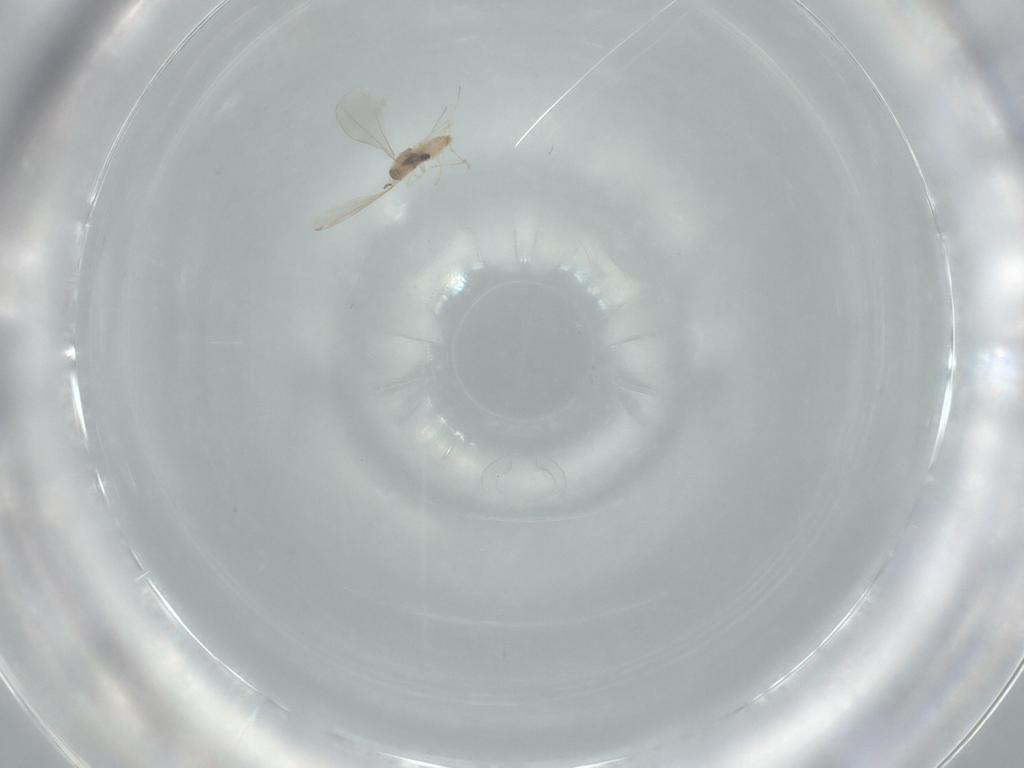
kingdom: Animalia
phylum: Arthropoda
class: Insecta
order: Diptera
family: Cecidomyiidae
